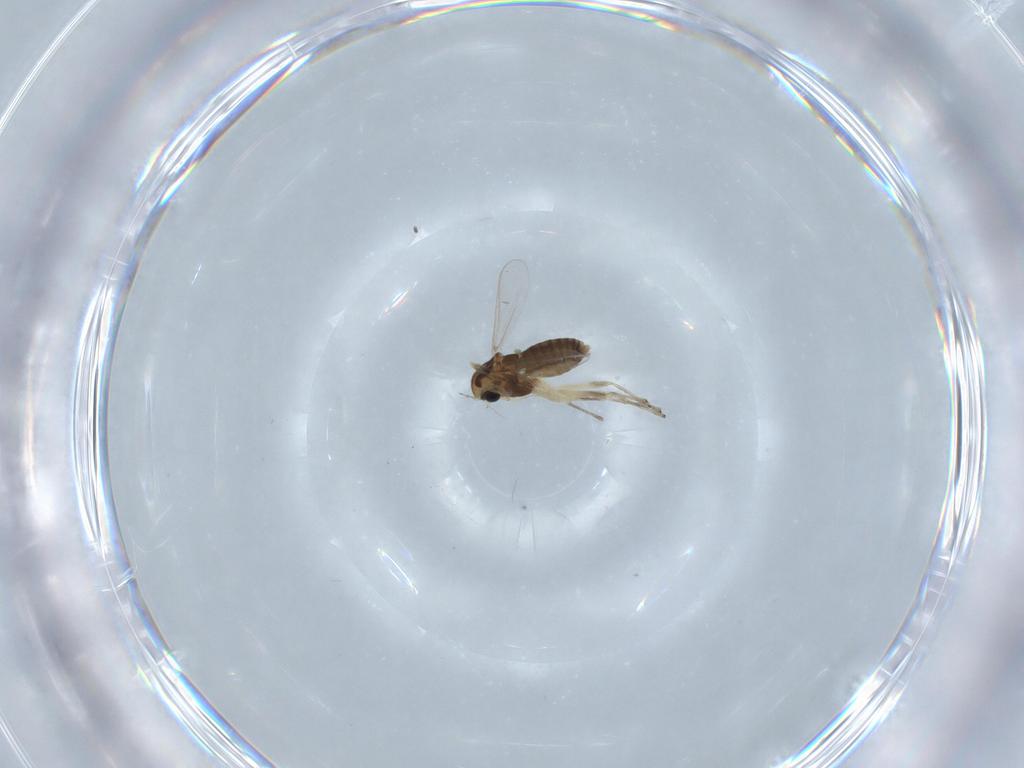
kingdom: Animalia
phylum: Arthropoda
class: Insecta
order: Diptera
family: Chironomidae
